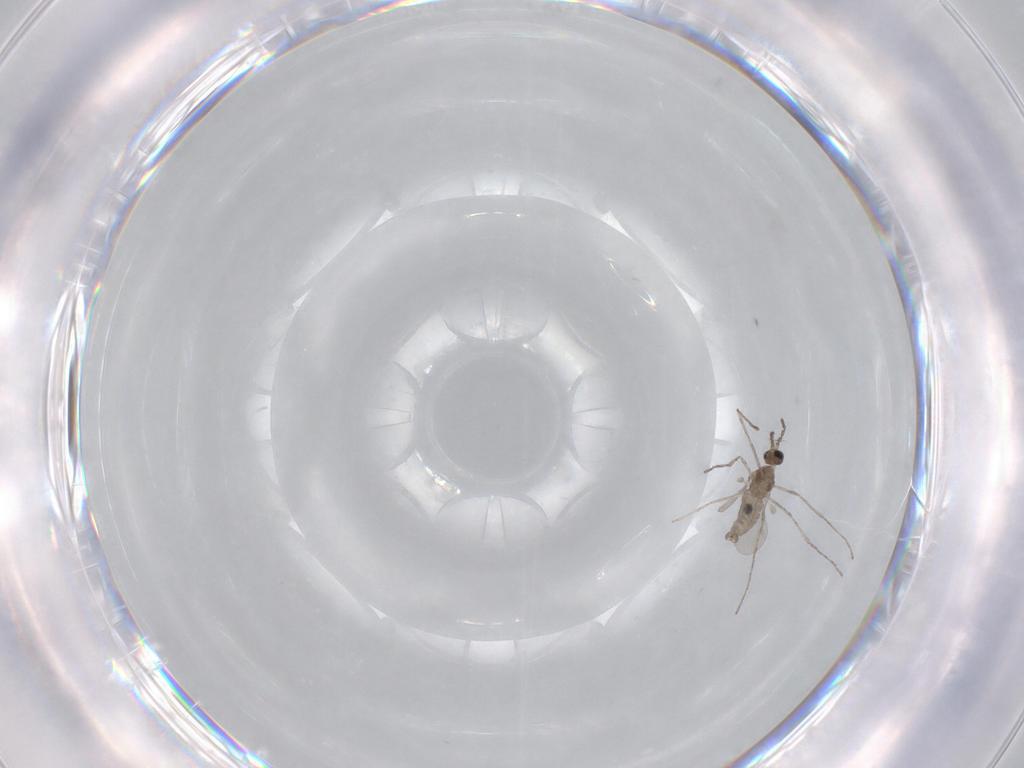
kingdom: Animalia
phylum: Arthropoda
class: Insecta
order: Diptera
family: Chironomidae
